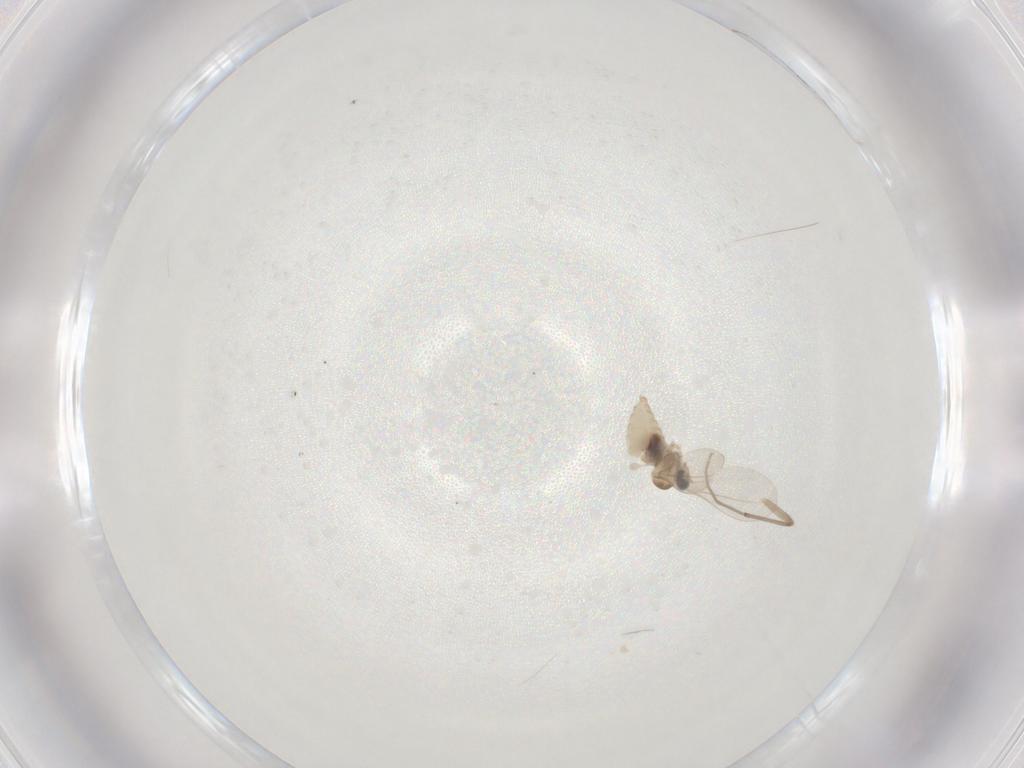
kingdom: Animalia
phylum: Arthropoda
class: Insecta
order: Diptera
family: Cecidomyiidae
